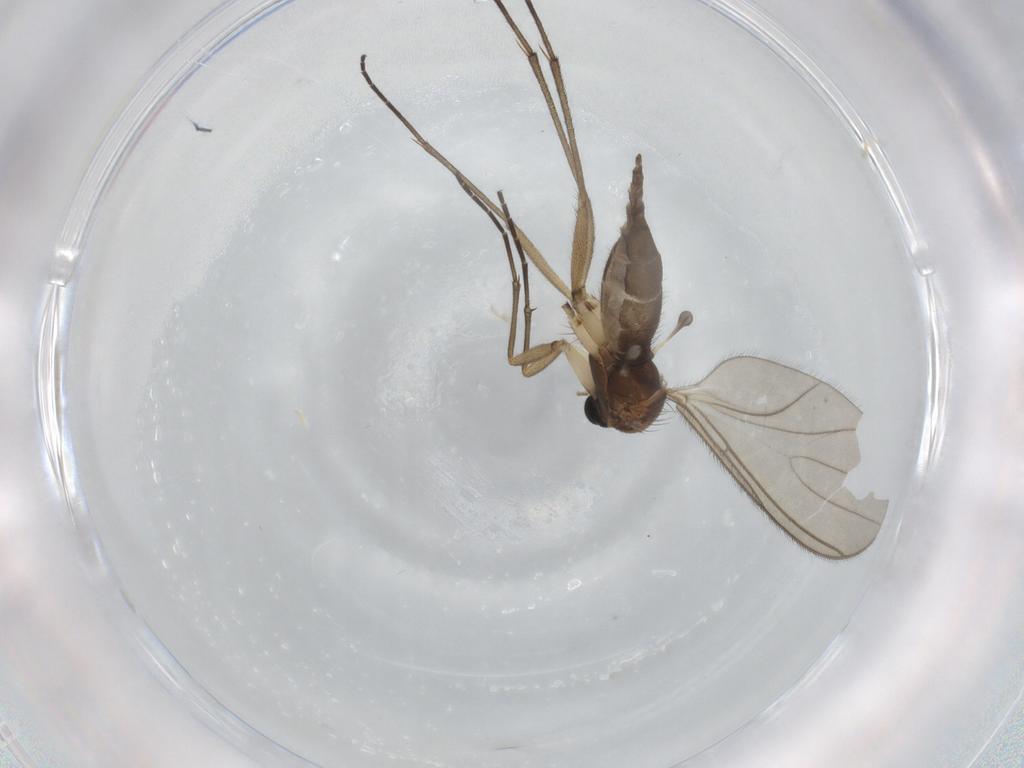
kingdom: Animalia
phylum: Arthropoda
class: Insecta
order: Diptera
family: Sciaridae
